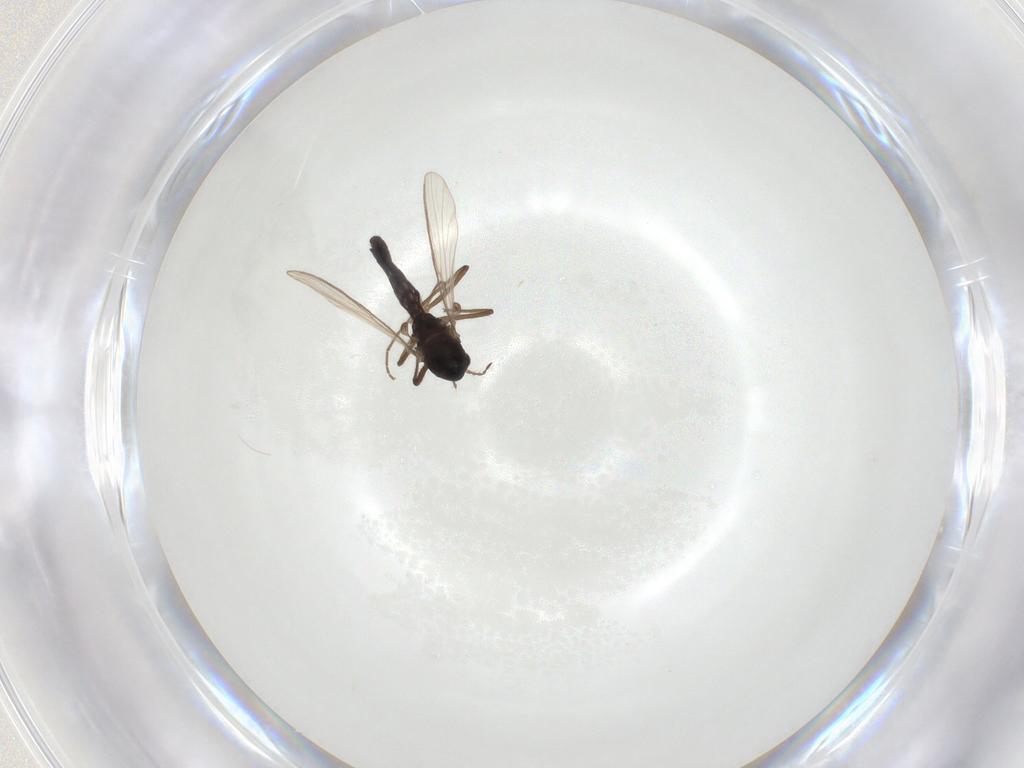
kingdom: Animalia
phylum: Arthropoda
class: Insecta
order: Diptera
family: Chironomidae
